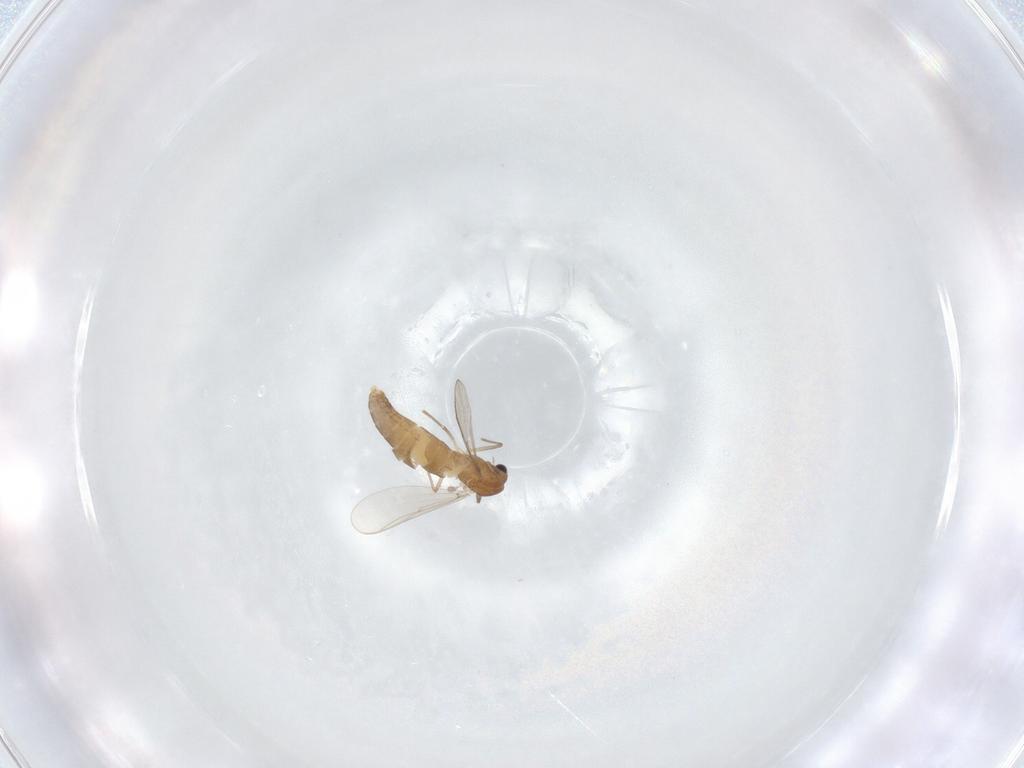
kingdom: Animalia
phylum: Arthropoda
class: Insecta
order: Diptera
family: Chironomidae
